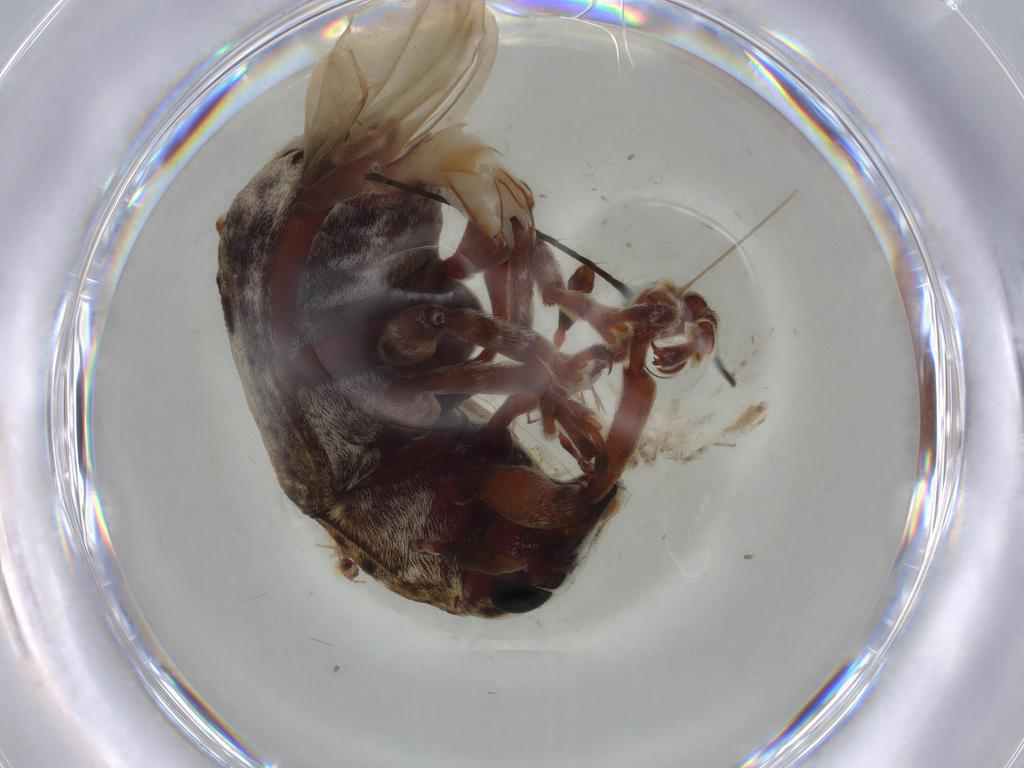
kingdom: Animalia
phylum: Arthropoda
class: Insecta
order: Coleoptera
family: Anthribidae
